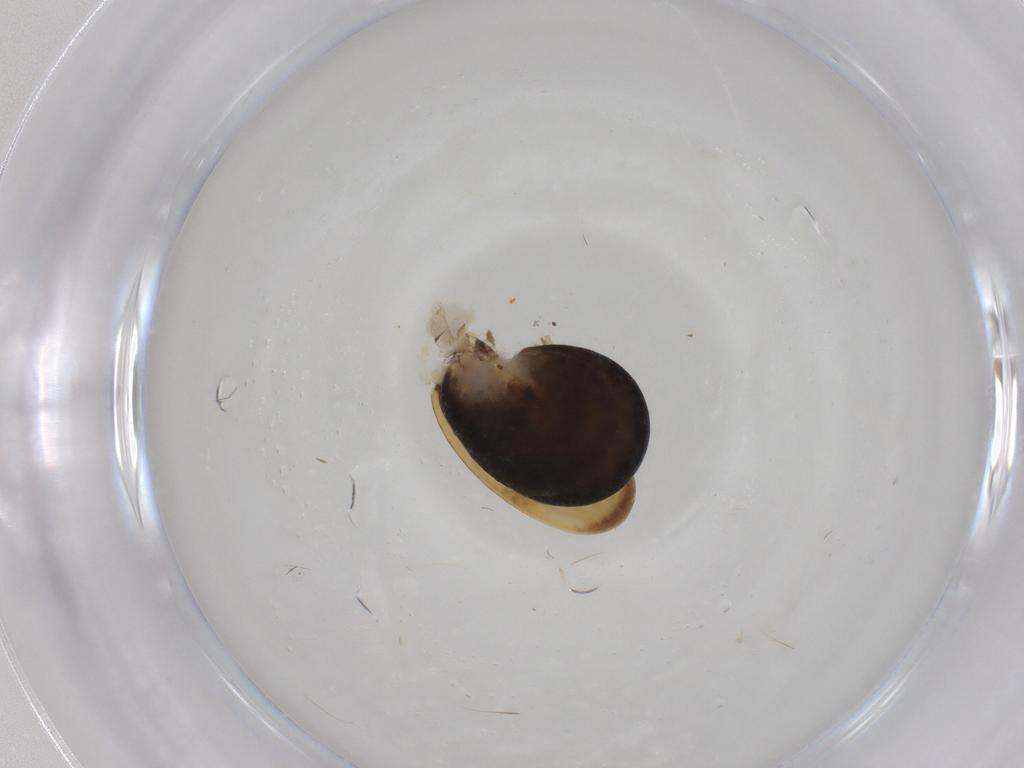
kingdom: Animalia
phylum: Arthropoda
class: Insecta
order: Hymenoptera
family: Dryinidae
